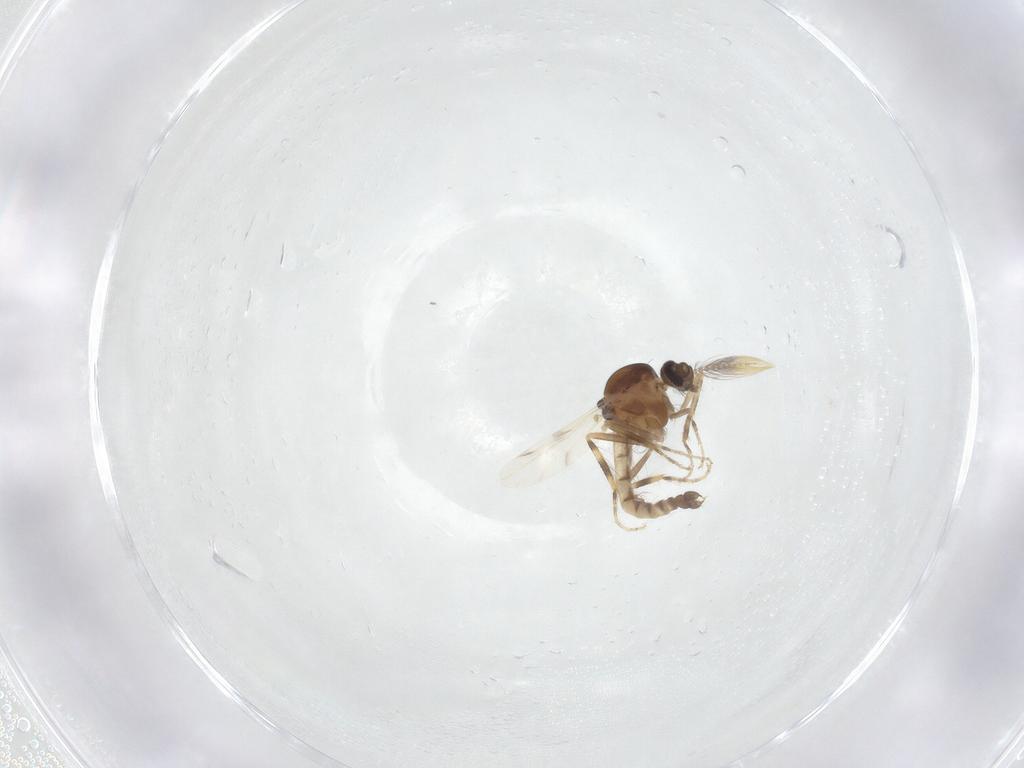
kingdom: Animalia
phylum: Arthropoda
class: Insecta
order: Diptera
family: Ceratopogonidae
